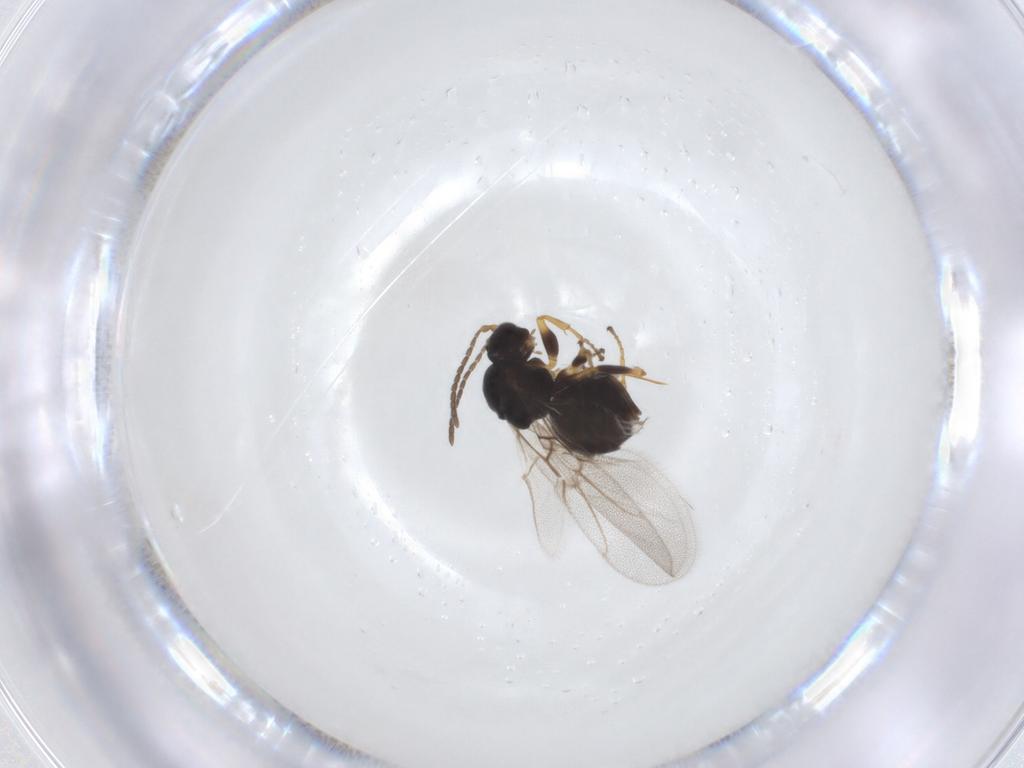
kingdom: Animalia
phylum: Arthropoda
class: Insecta
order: Hymenoptera
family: Cynipidae
